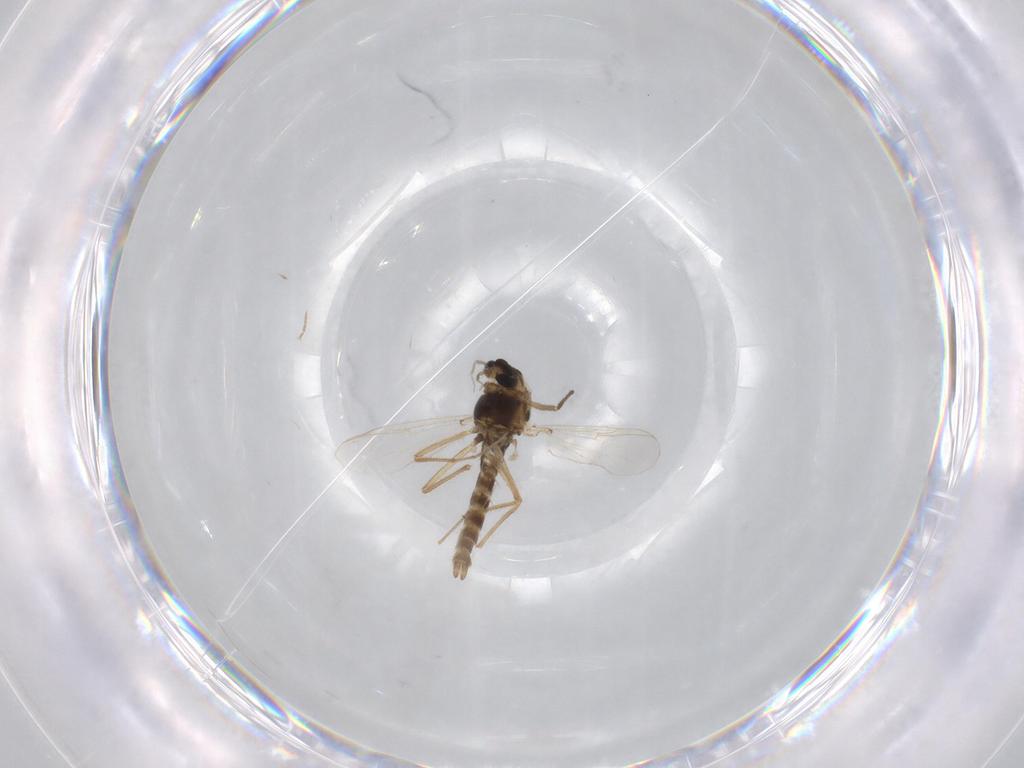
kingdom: Animalia
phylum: Arthropoda
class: Insecta
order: Diptera
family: Chironomidae
